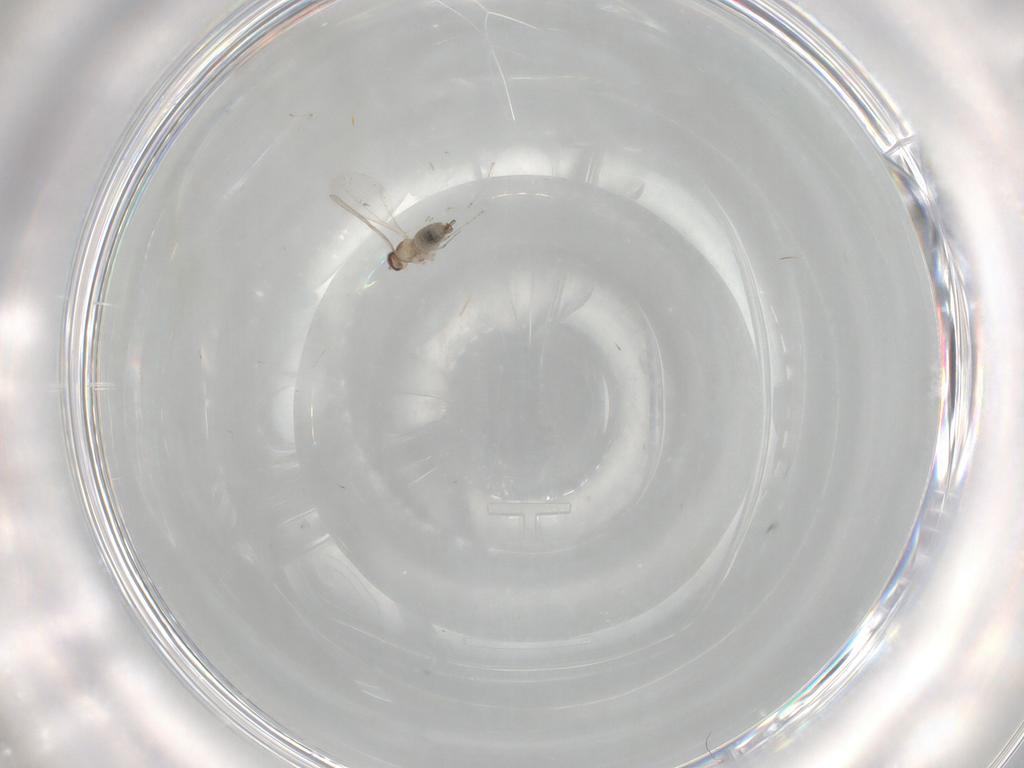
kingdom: Animalia
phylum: Arthropoda
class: Insecta
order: Diptera
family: Cecidomyiidae
